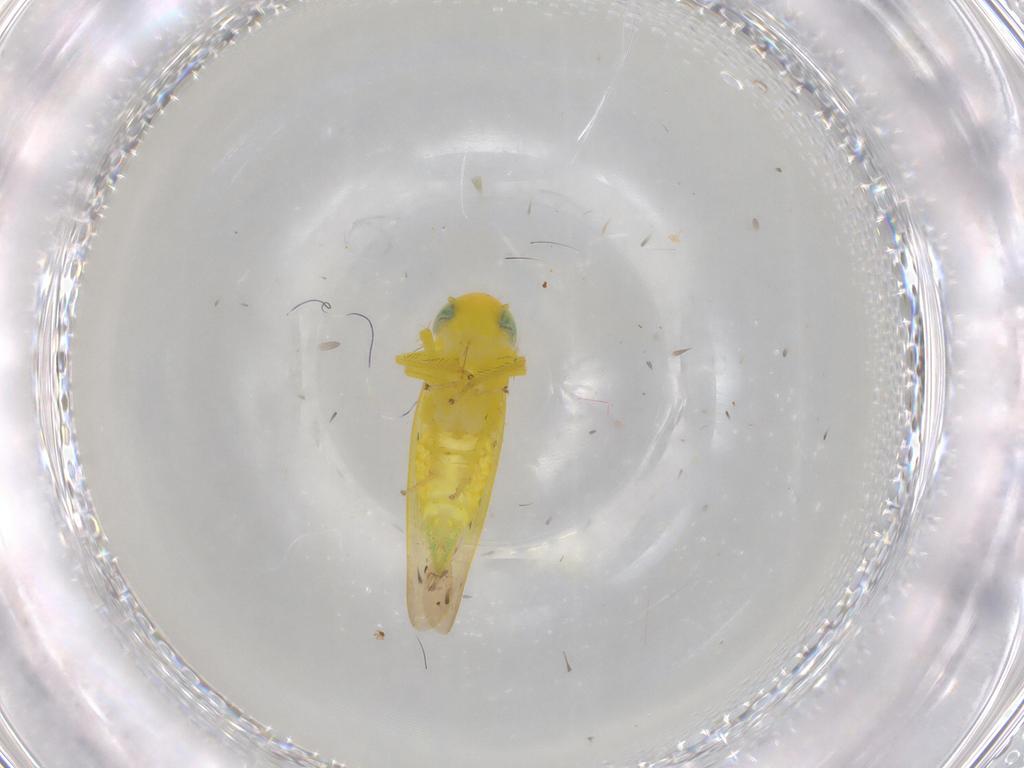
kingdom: Animalia
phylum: Arthropoda
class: Insecta
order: Hemiptera
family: Cicadellidae
